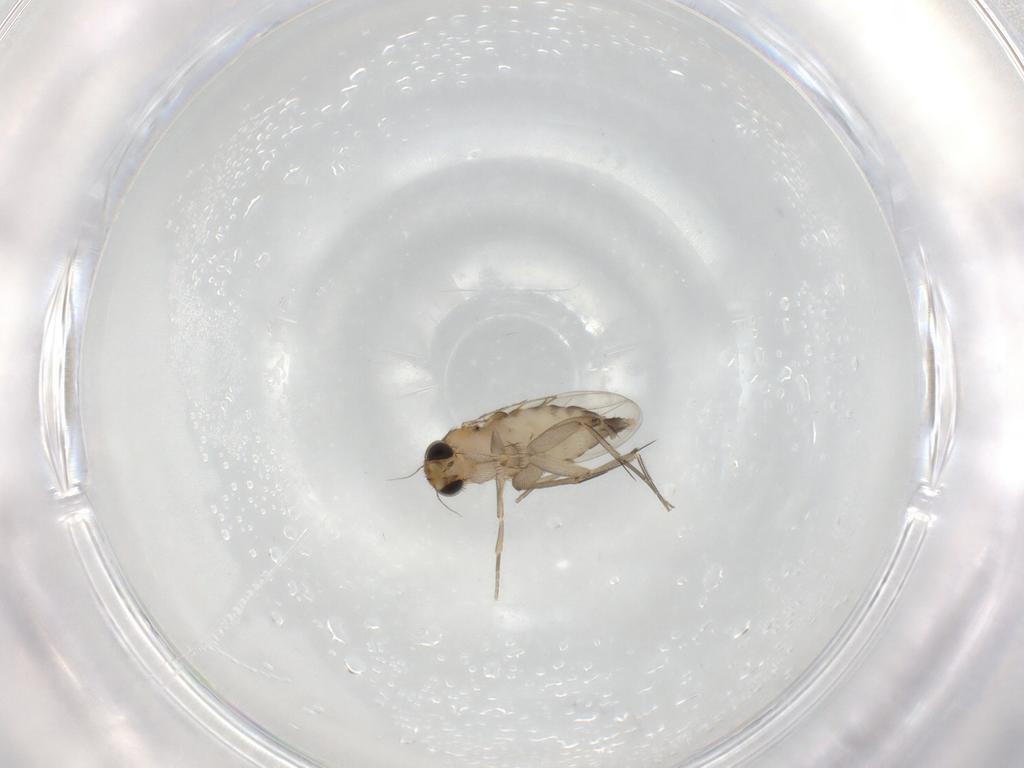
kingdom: Animalia
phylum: Arthropoda
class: Insecta
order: Diptera
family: Phoridae
